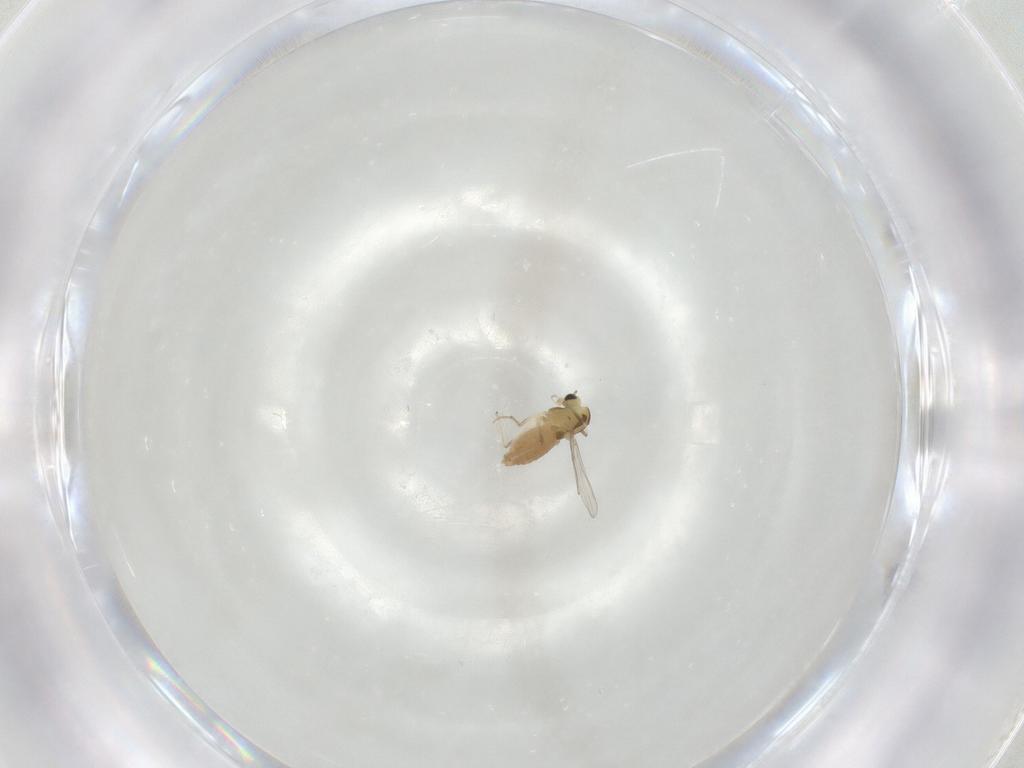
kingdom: Animalia
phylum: Arthropoda
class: Insecta
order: Diptera
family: Chironomidae
